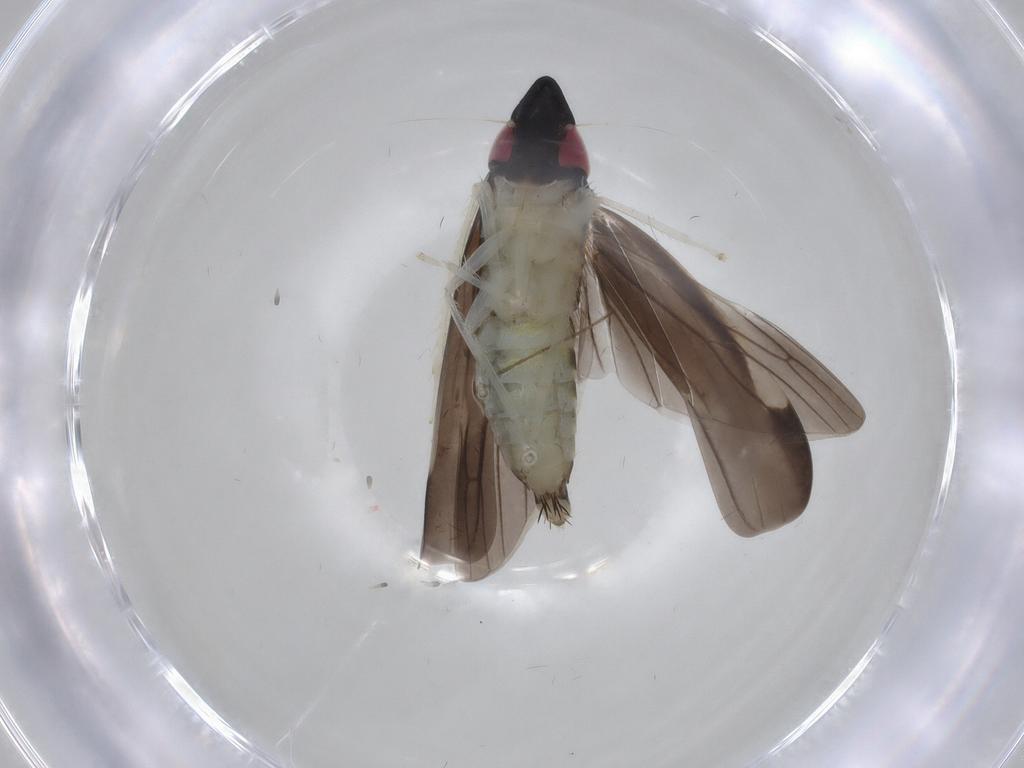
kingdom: Animalia
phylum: Arthropoda
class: Insecta
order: Hemiptera
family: Cicadellidae
